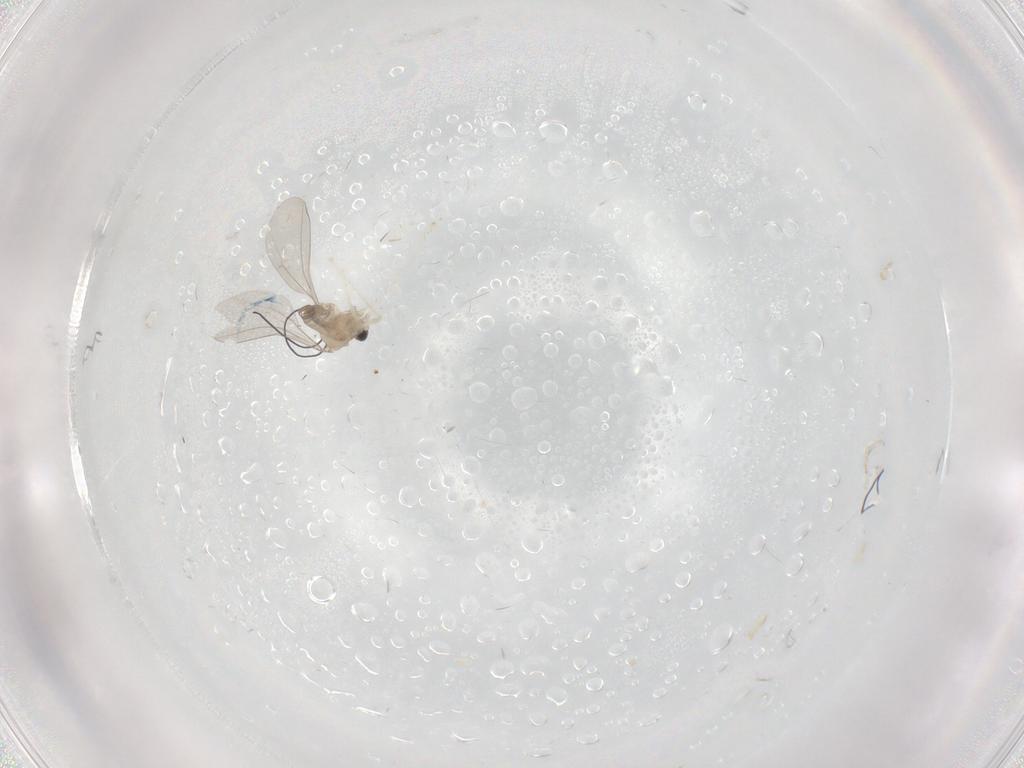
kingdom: Animalia
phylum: Arthropoda
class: Insecta
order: Diptera
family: Cecidomyiidae
